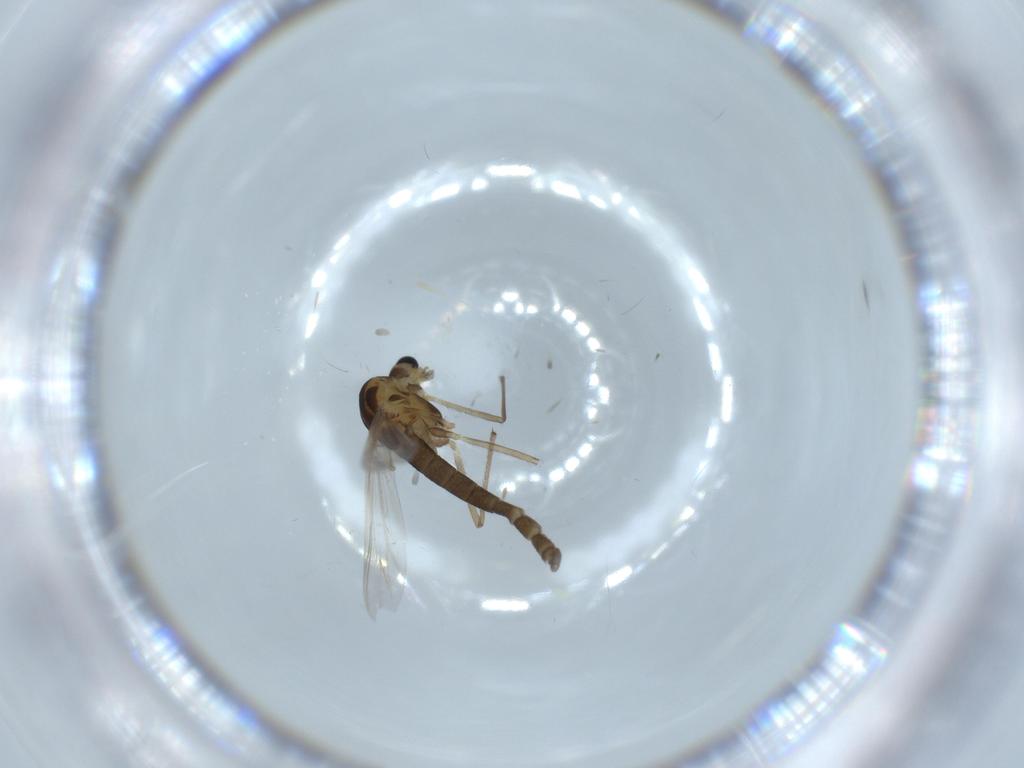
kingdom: Animalia
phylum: Arthropoda
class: Insecta
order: Diptera
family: Chironomidae
